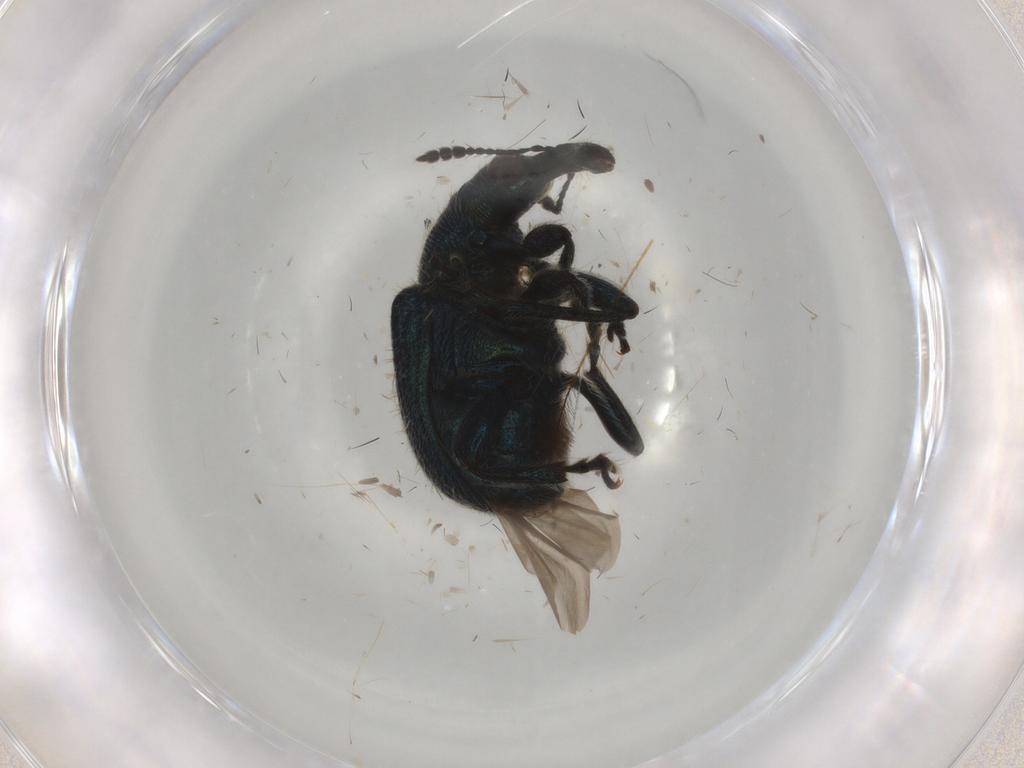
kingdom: Animalia
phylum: Arthropoda
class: Insecta
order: Coleoptera
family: Attelabidae
